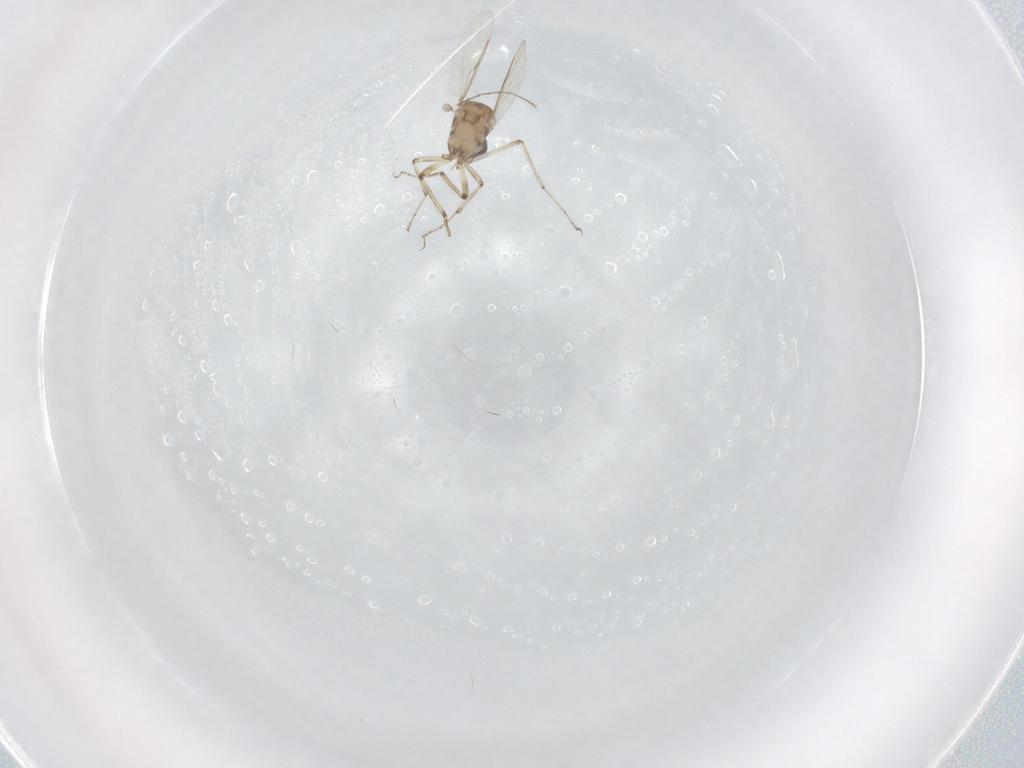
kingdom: Animalia
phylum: Arthropoda
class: Insecta
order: Diptera
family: Ceratopogonidae
